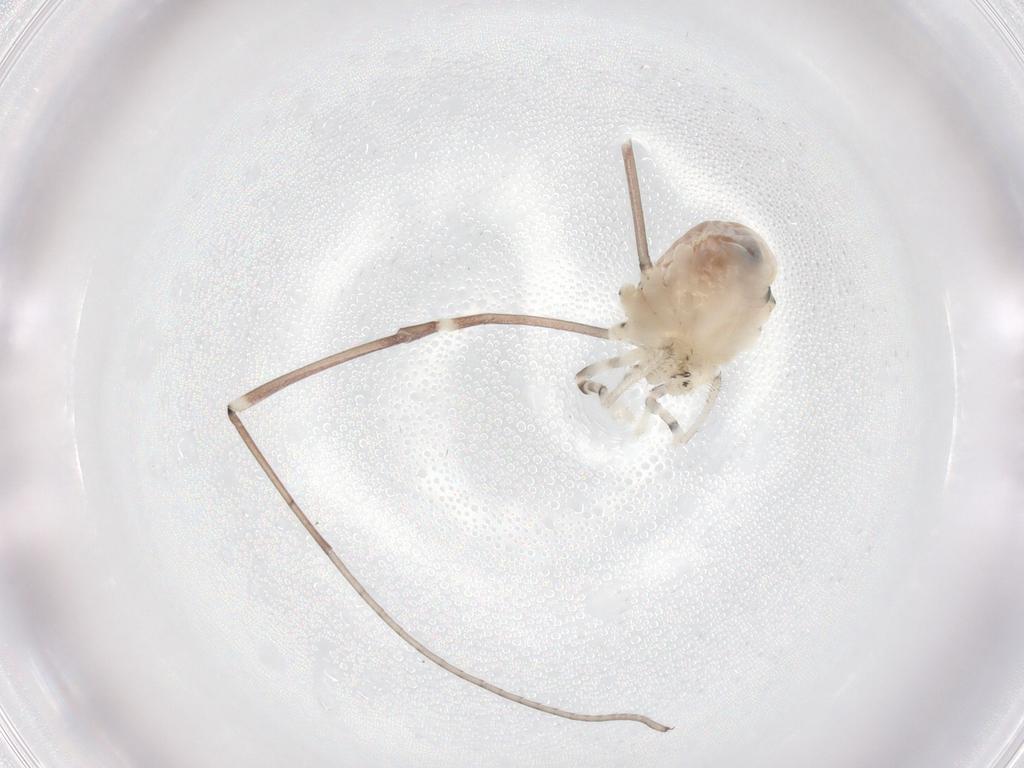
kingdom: Animalia
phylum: Arthropoda
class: Arachnida
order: Opiliones
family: Sclerosomatidae
